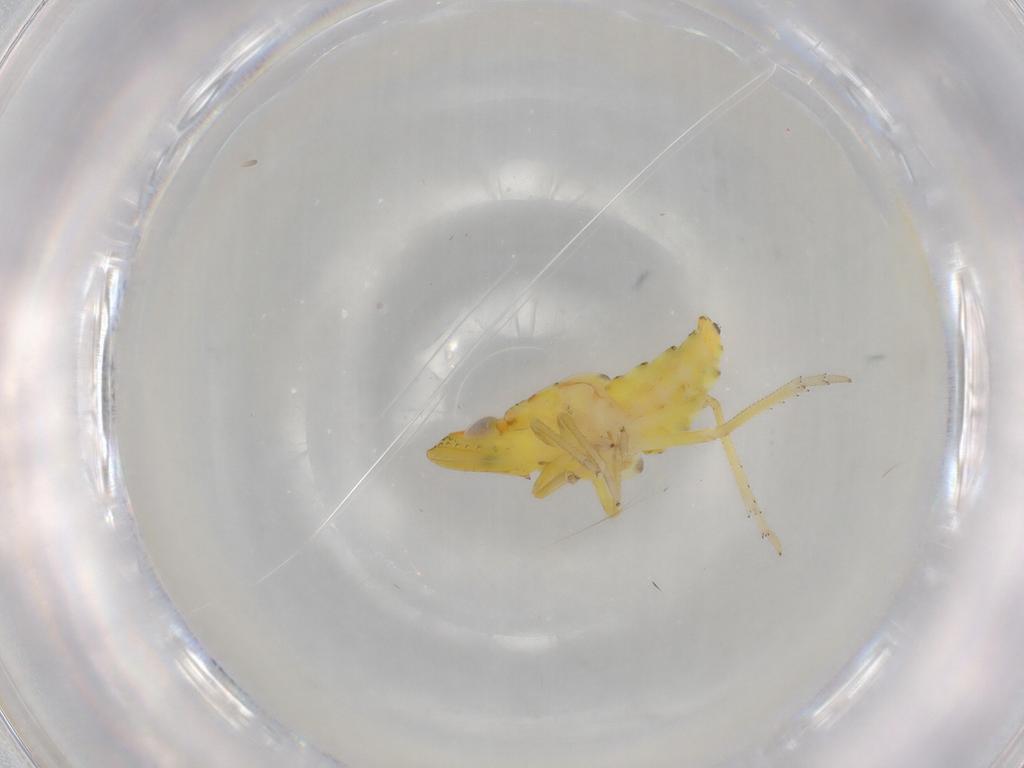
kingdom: Animalia
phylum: Arthropoda
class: Insecta
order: Hemiptera
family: Tropiduchidae
